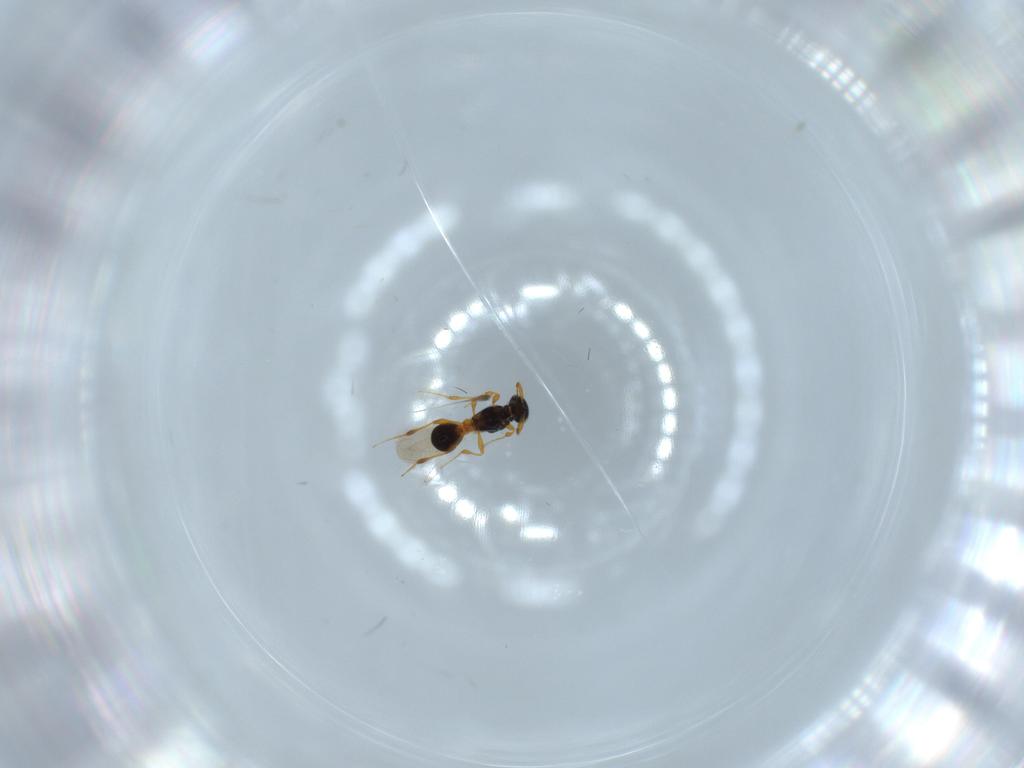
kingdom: Animalia
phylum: Arthropoda
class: Insecta
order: Hymenoptera
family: Platygastridae
